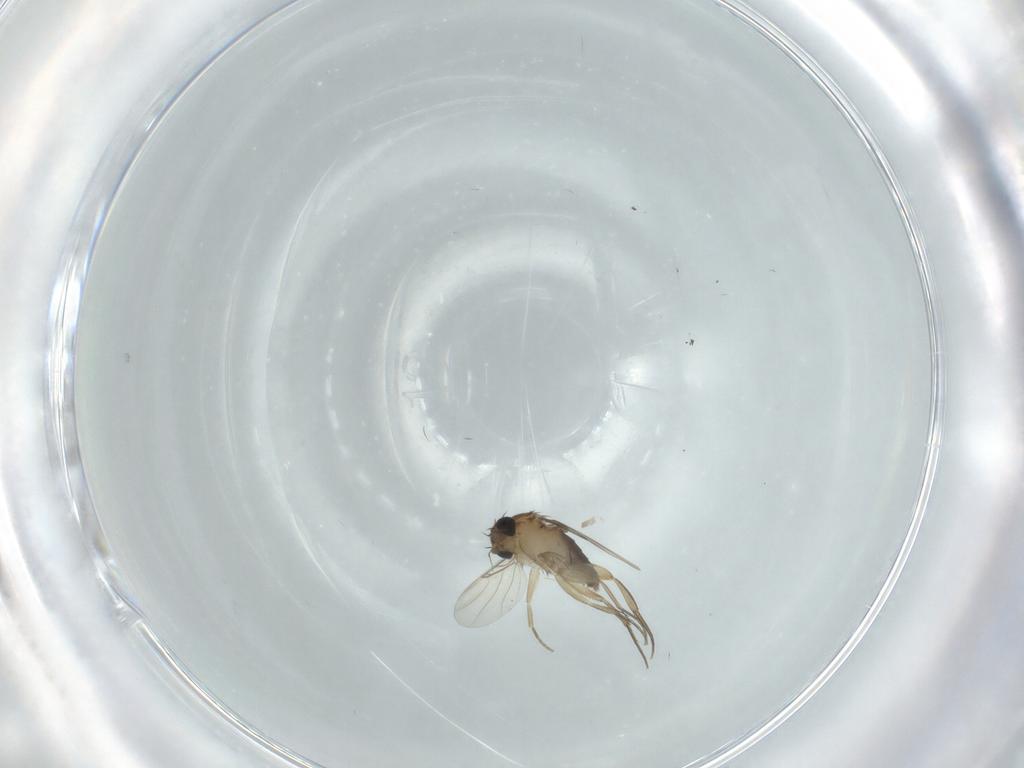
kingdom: Animalia
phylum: Arthropoda
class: Insecta
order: Diptera
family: Phoridae
